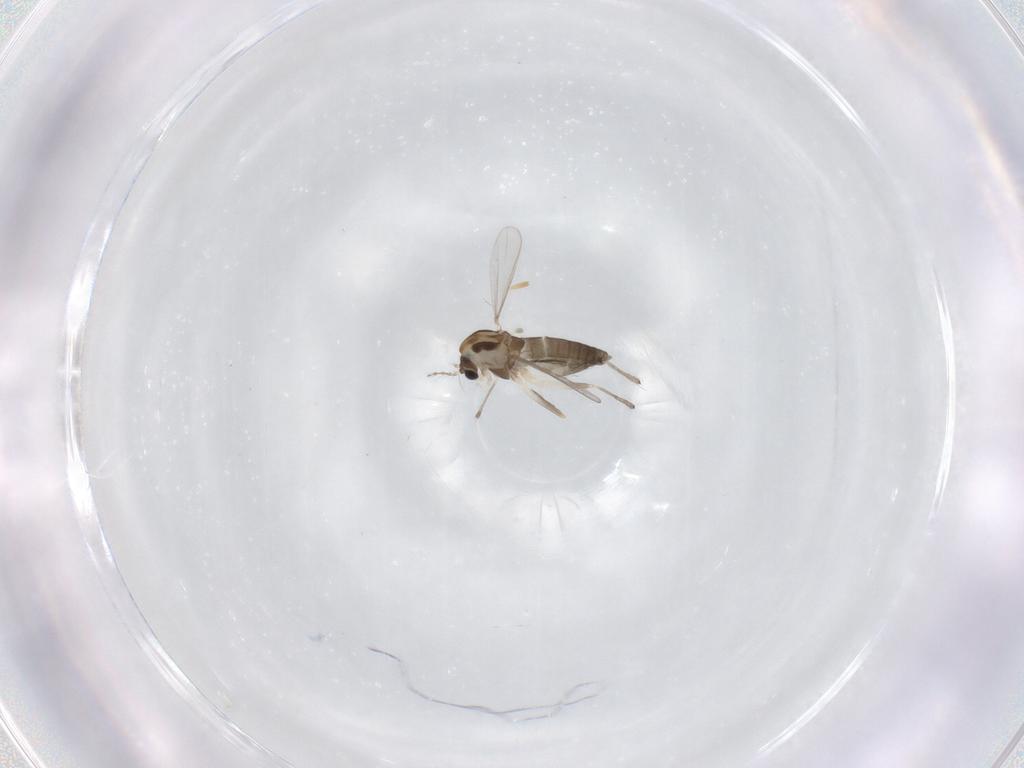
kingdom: Animalia
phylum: Arthropoda
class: Insecta
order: Diptera
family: Chironomidae
